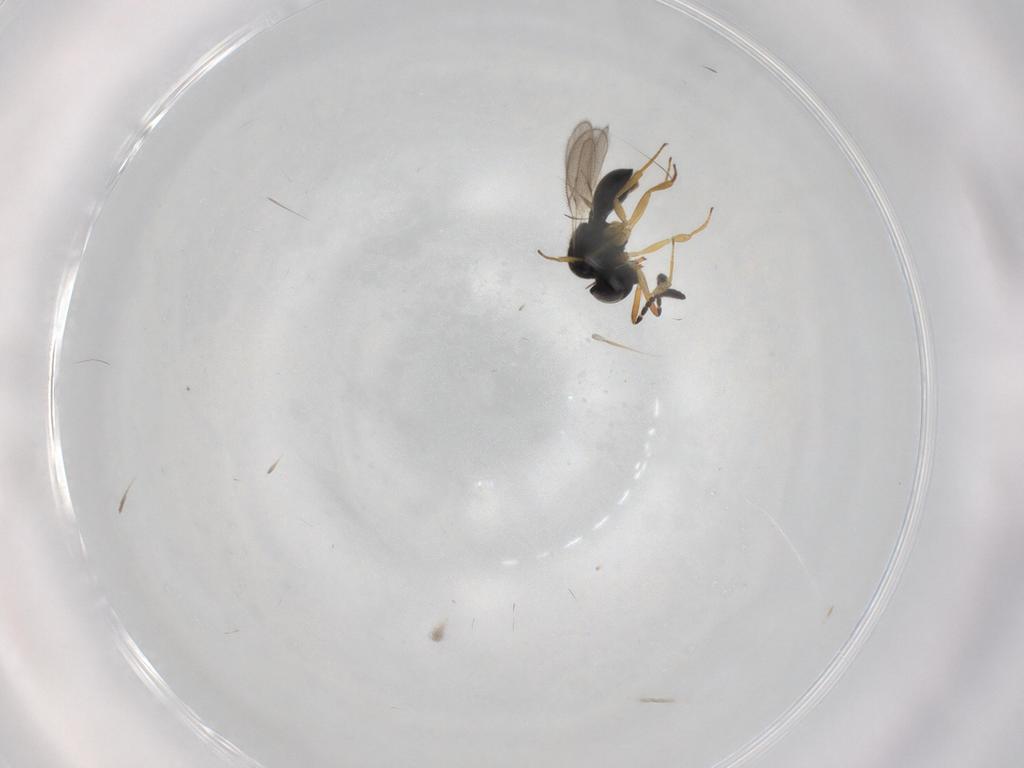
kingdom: Animalia
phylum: Arthropoda
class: Insecta
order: Hymenoptera
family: Scelionidae
